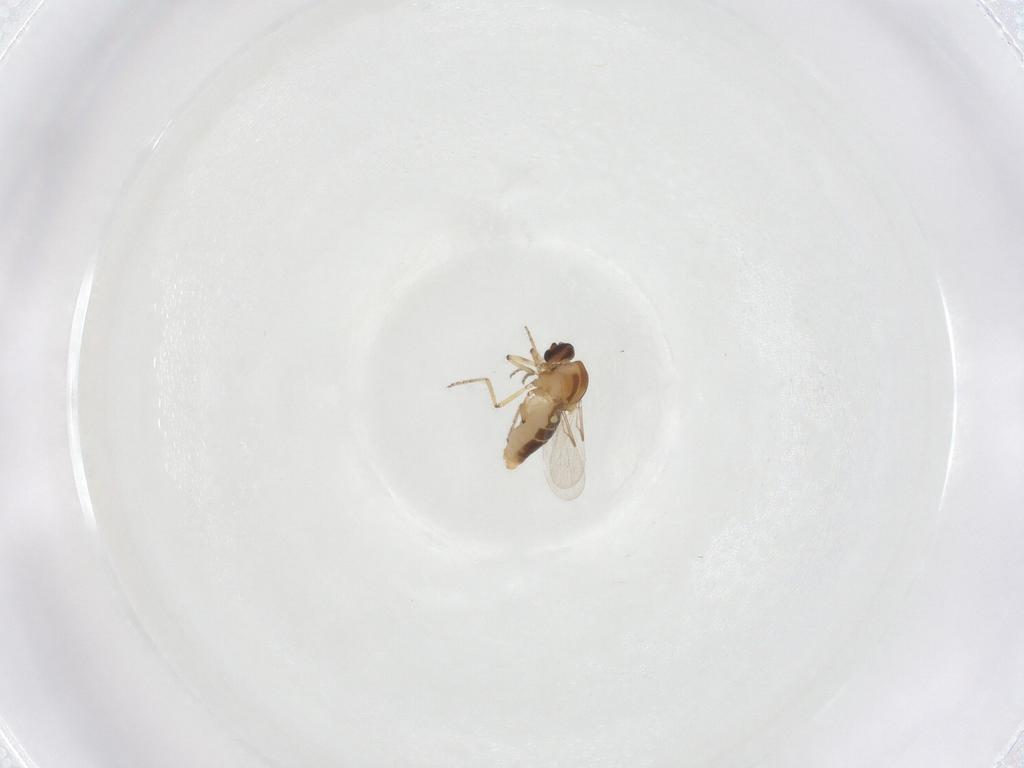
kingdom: Animalia
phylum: Arthropoda
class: Insecta
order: Diptera
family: Ceratopogonidae
